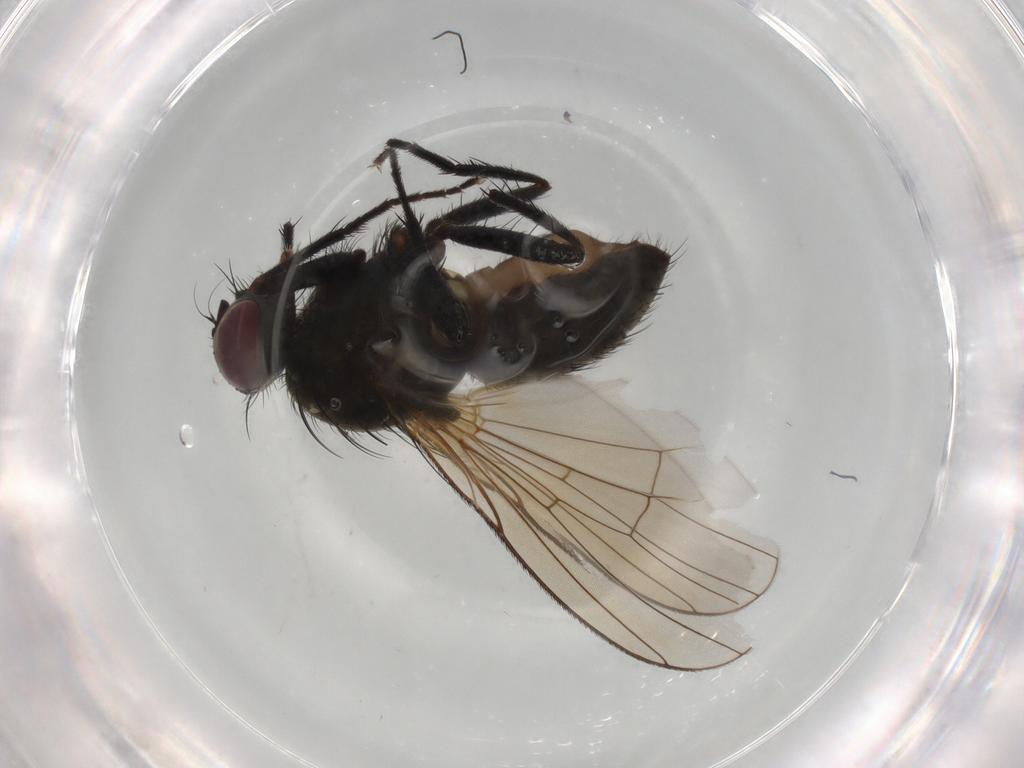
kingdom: Animalia
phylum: Arthropoda
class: Insecta
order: Diptera
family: Muscidae
